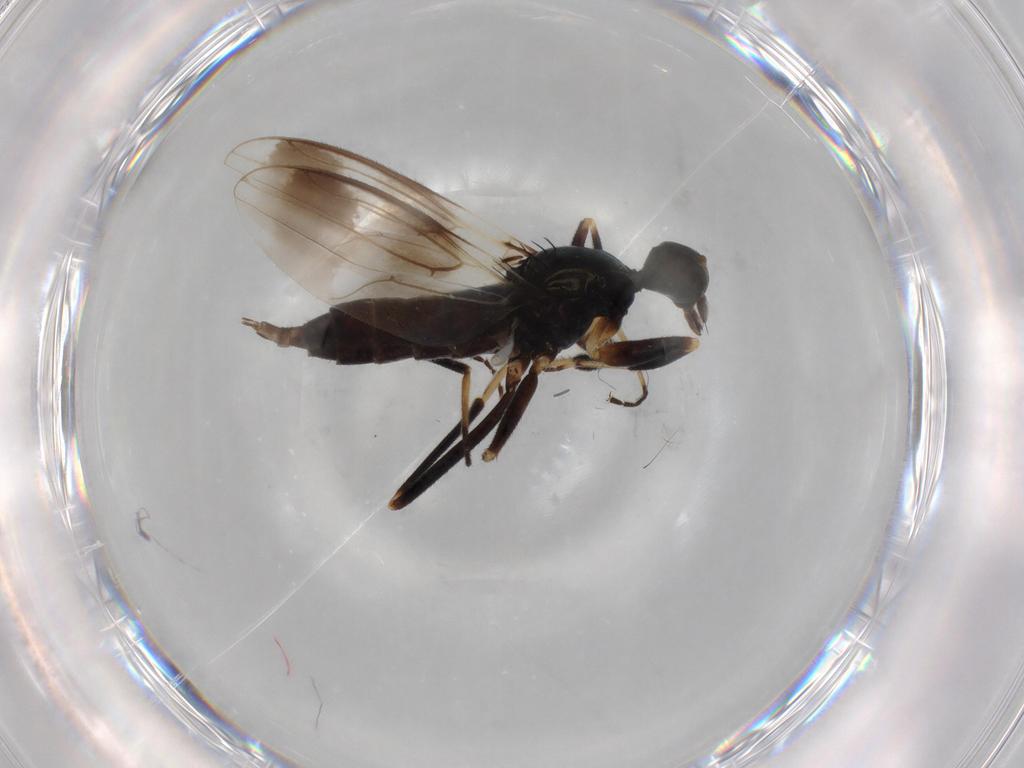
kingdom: Animalia
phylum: Arthropoda
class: Insecta
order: Diptera
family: Hybotidae
